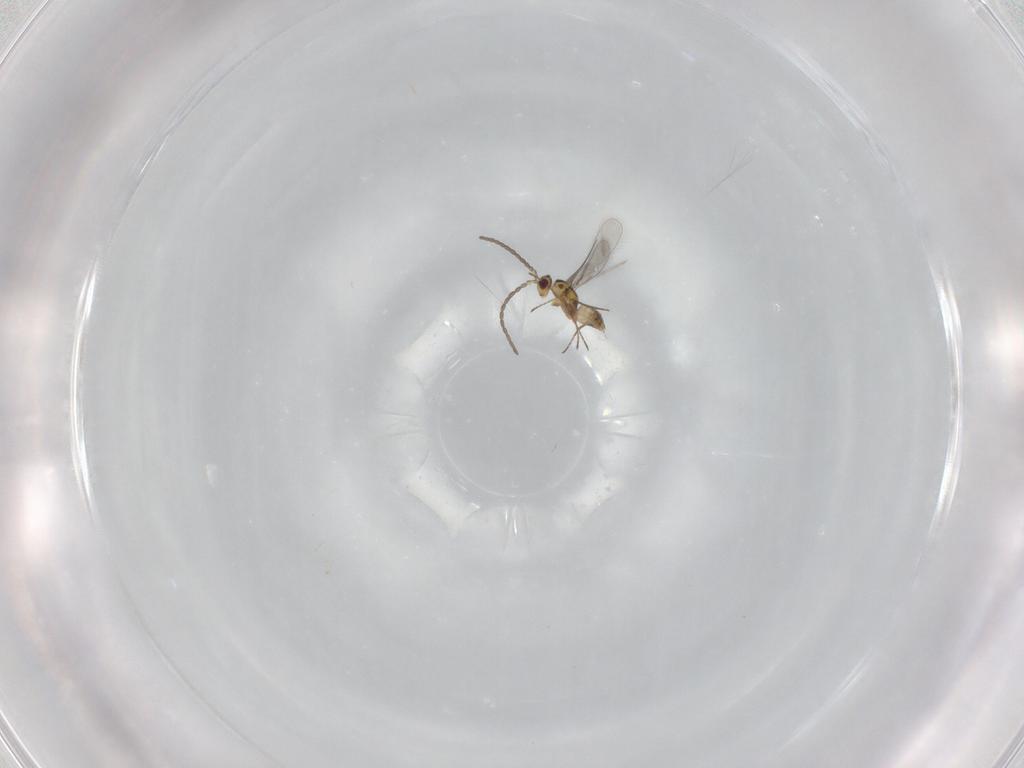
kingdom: Animalia
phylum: Arthropoda
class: Insecta
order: Hymenoptera
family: Mymaridae
